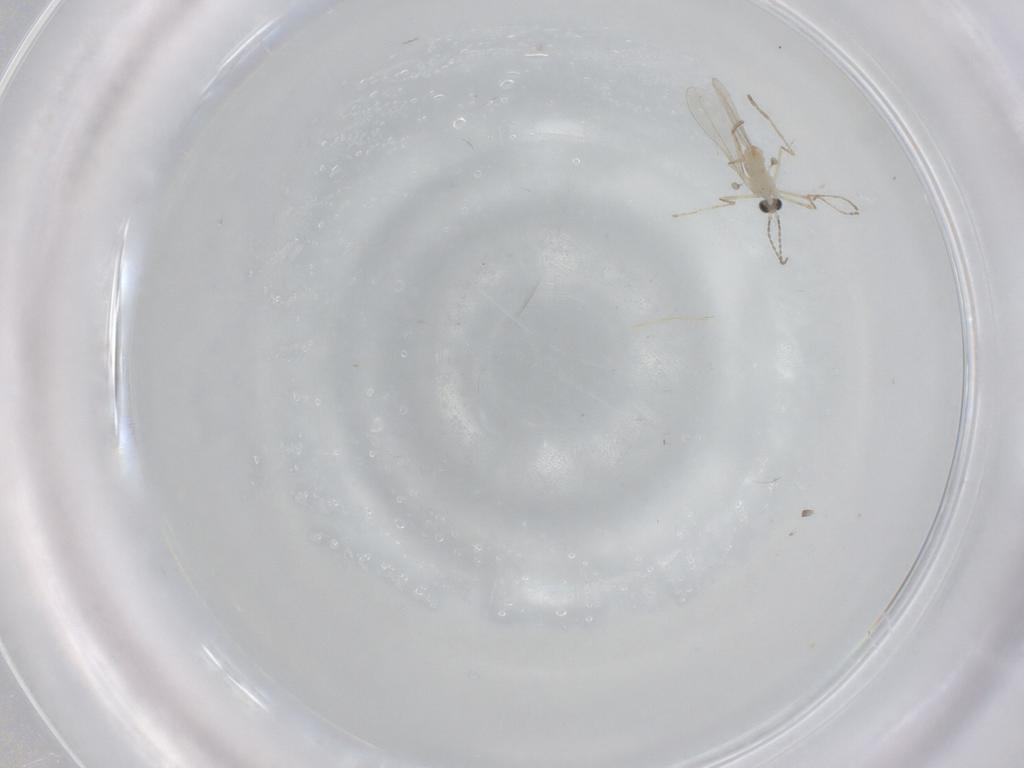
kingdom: Animalia
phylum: Arthropoda
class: Insecta
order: Diptera
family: Cecidomyiidae
